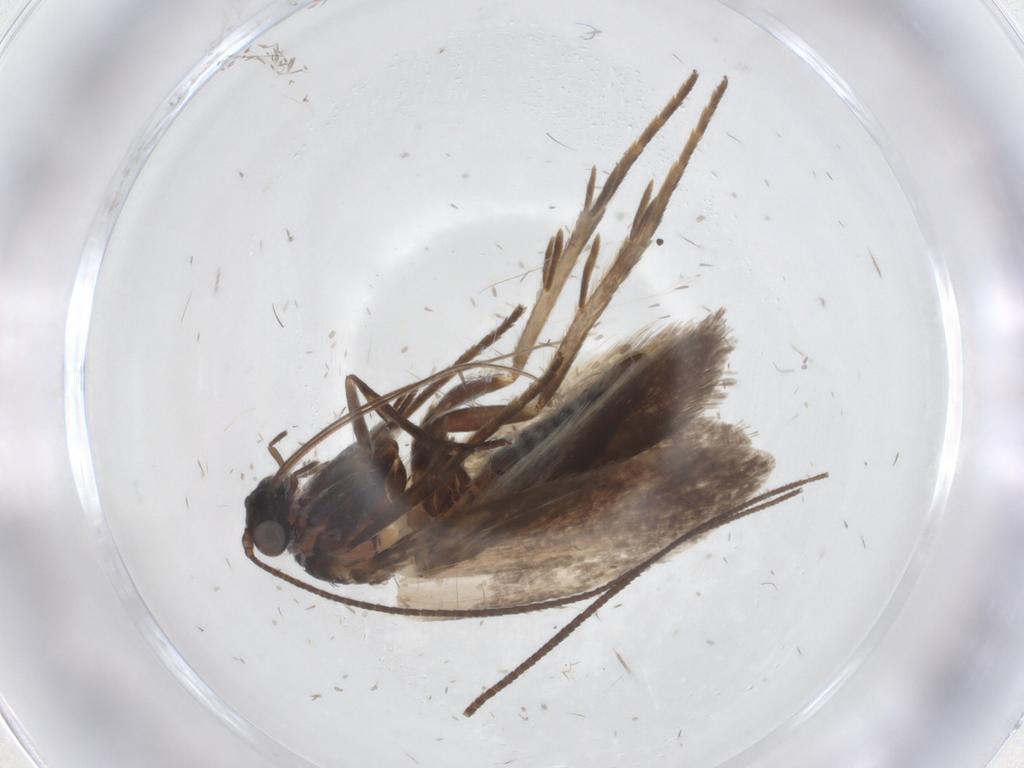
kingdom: Animalia
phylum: Arthropoda
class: Insecta
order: Lepidoptera
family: Adelidae
